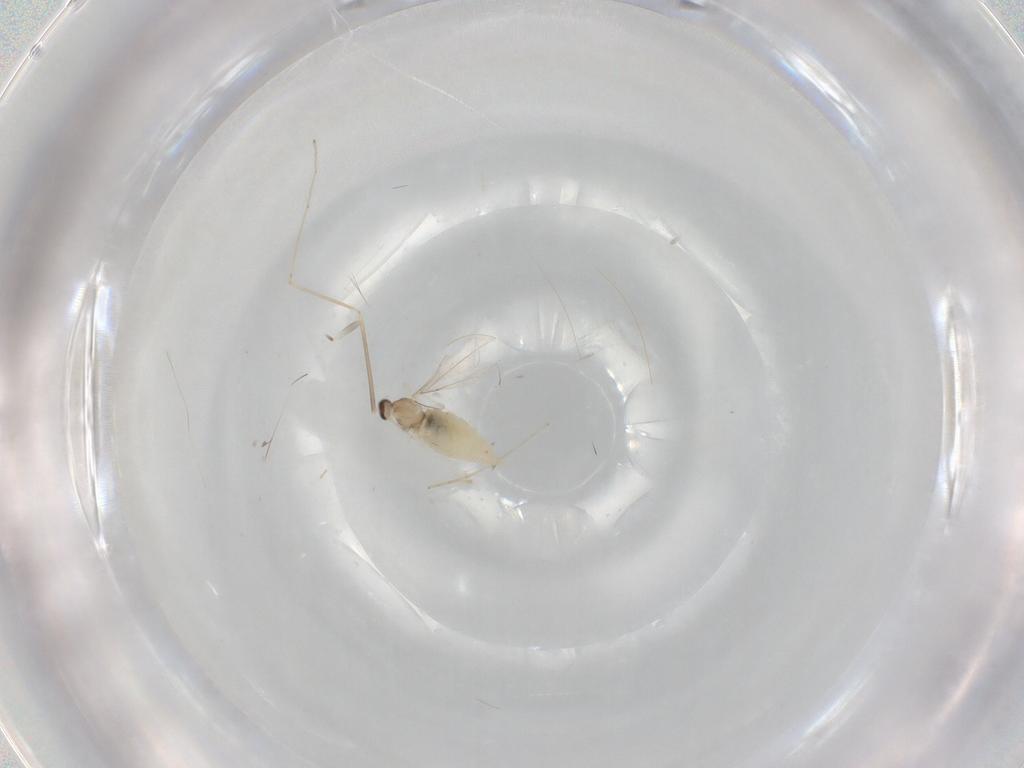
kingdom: Animalia
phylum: Arthropoda
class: Insecta
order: Diptera
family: Cecidomyiidae
